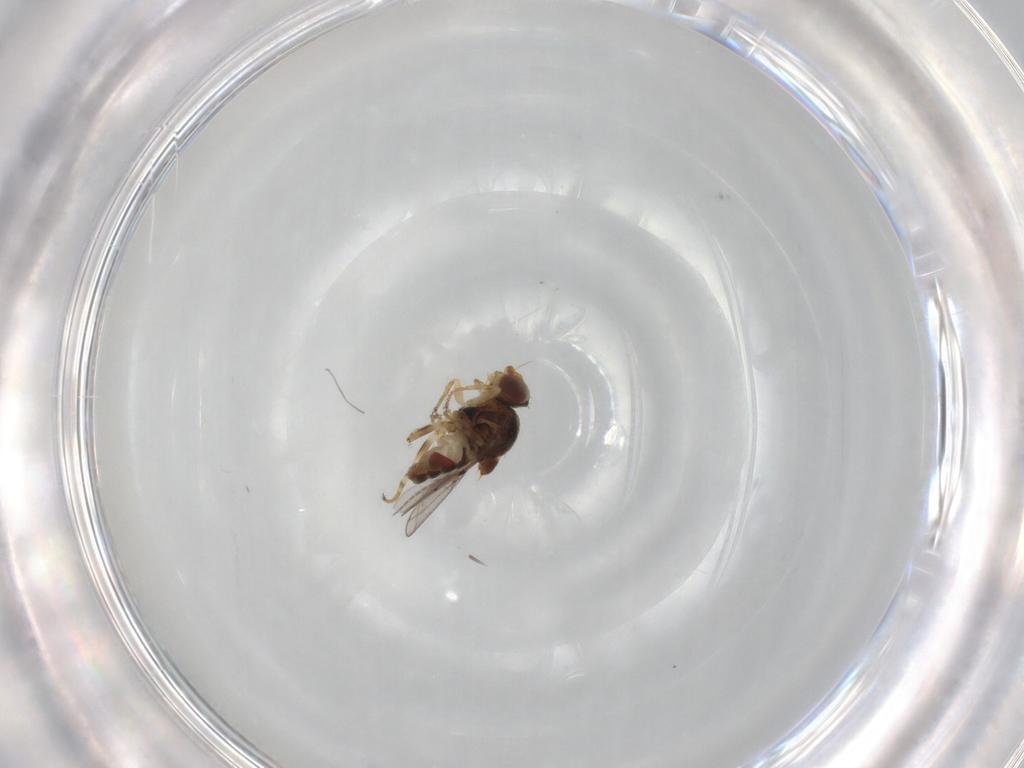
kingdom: Animalia
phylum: Arthropoda
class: Insecta
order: Diptera
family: Chloropidae
